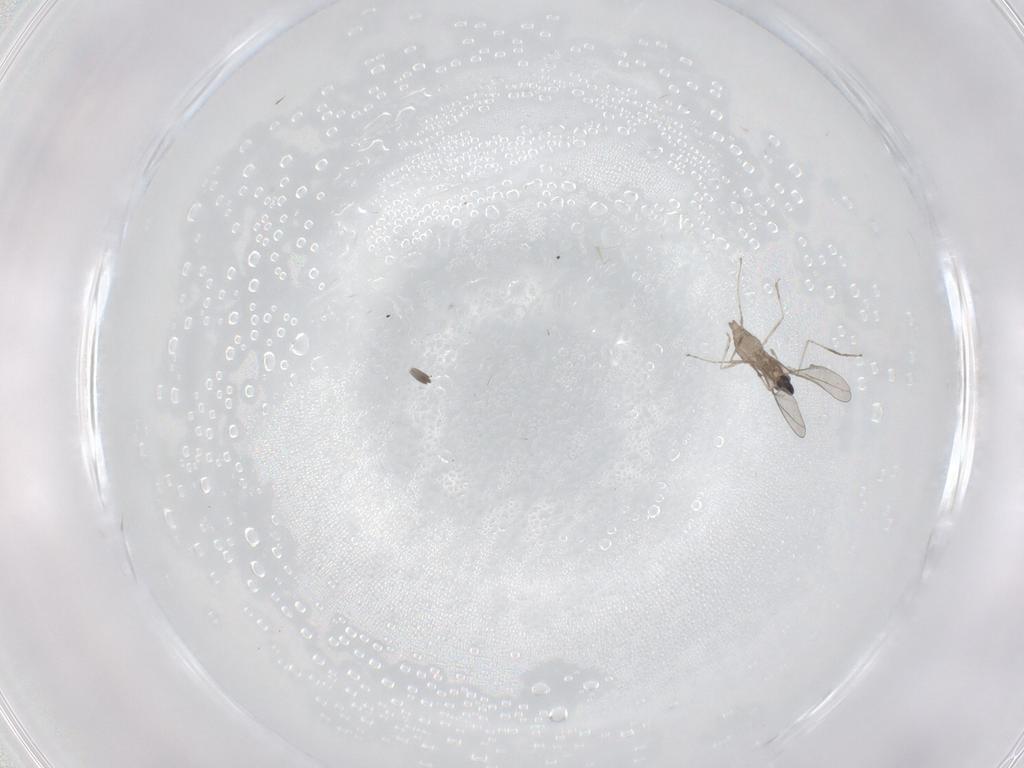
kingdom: Animalia
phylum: Arthropoda
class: Insecta
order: Diptera
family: Cecidomyiidae
